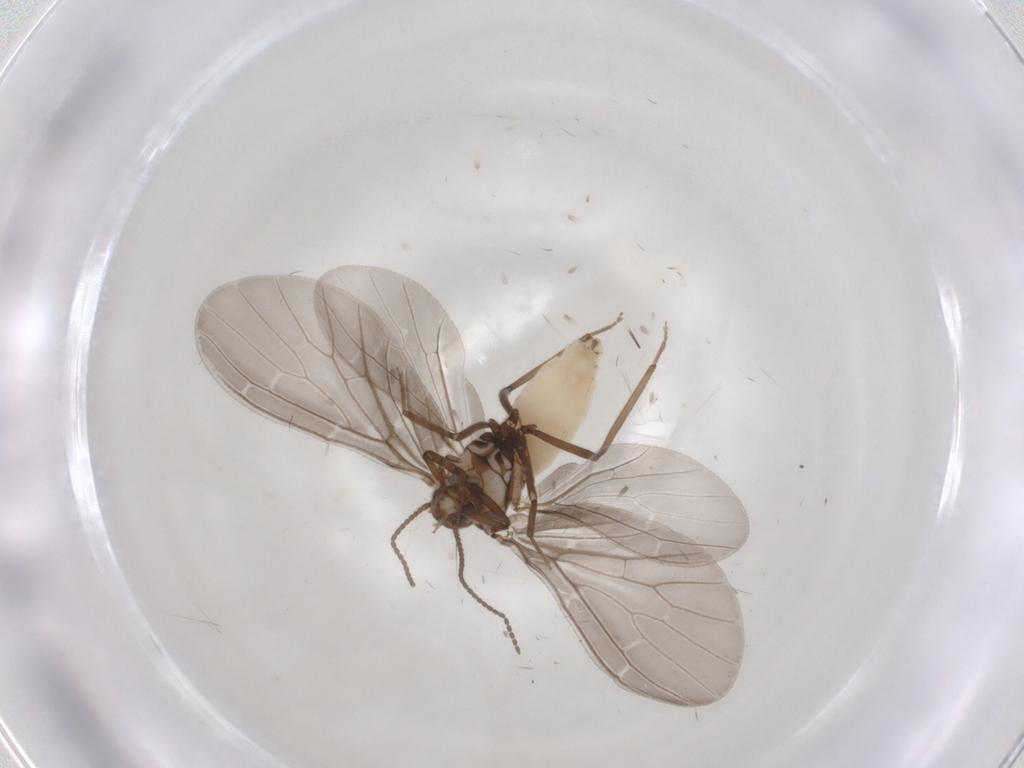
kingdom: Animalia
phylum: Arthropoda
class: Insecta
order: Neuroptera
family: Coniopterygidae
